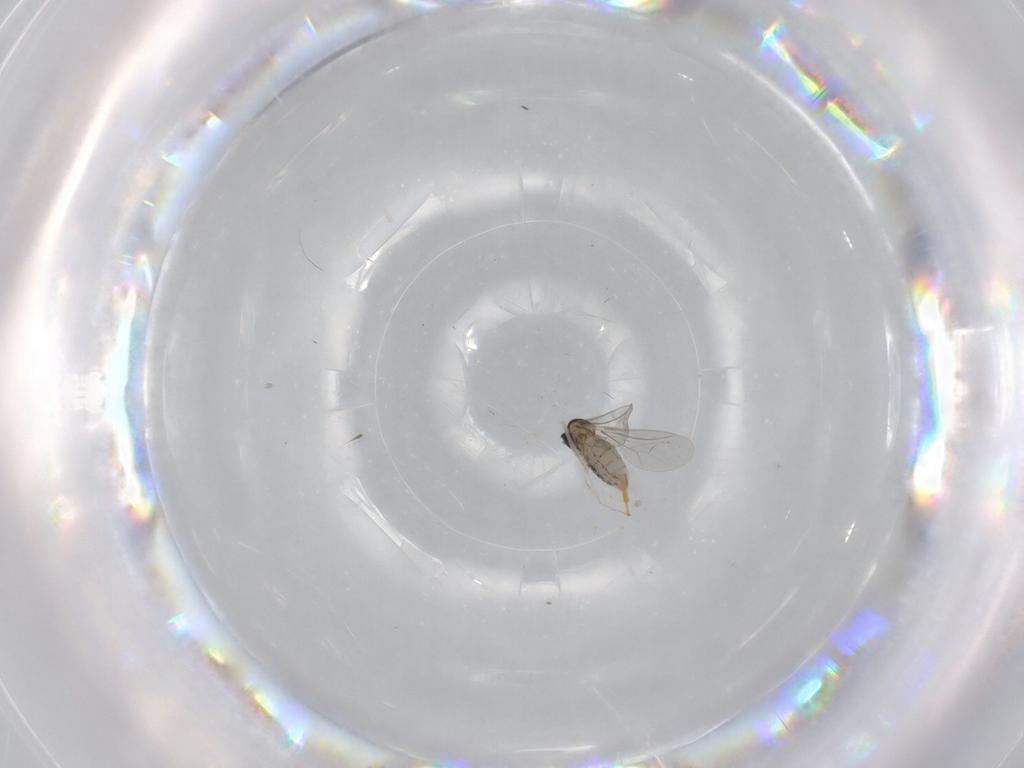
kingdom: Animalia
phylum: Arthropoda
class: Insecta
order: Diptera
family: Cecidomyiidae
